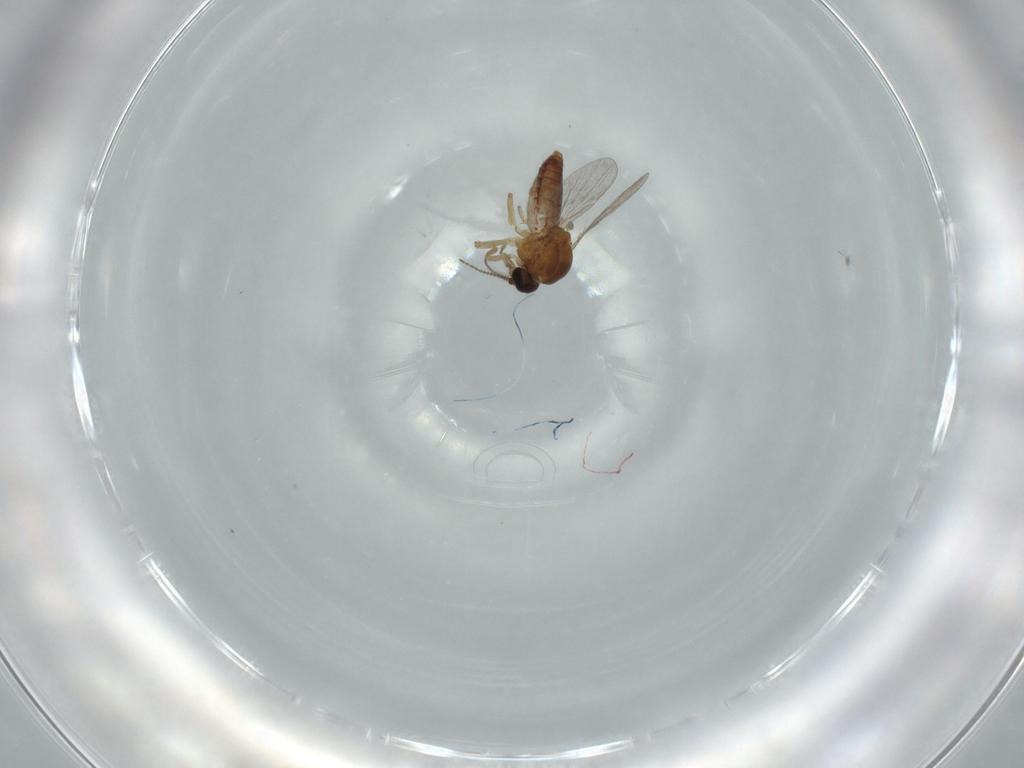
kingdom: Animalia
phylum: Arthropoda
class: Insecta
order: Diptera
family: Ceratopogonidae
